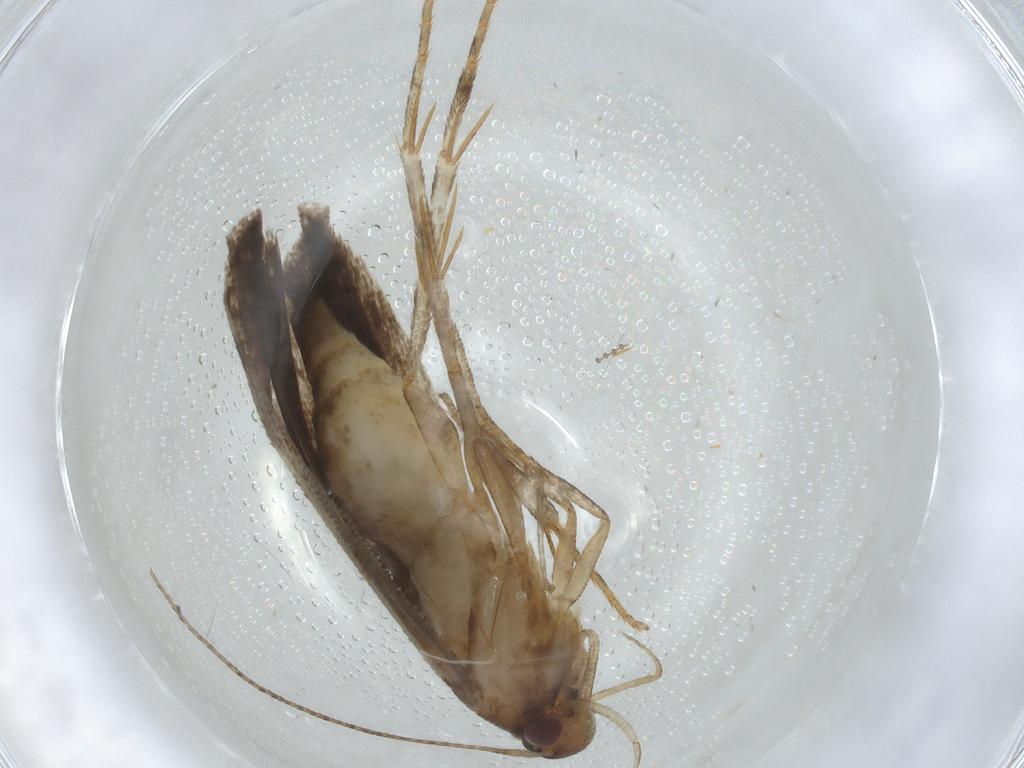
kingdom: Animalia
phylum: Arthropoda
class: Insecta
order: Lepidoptera
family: Gelechiidae
